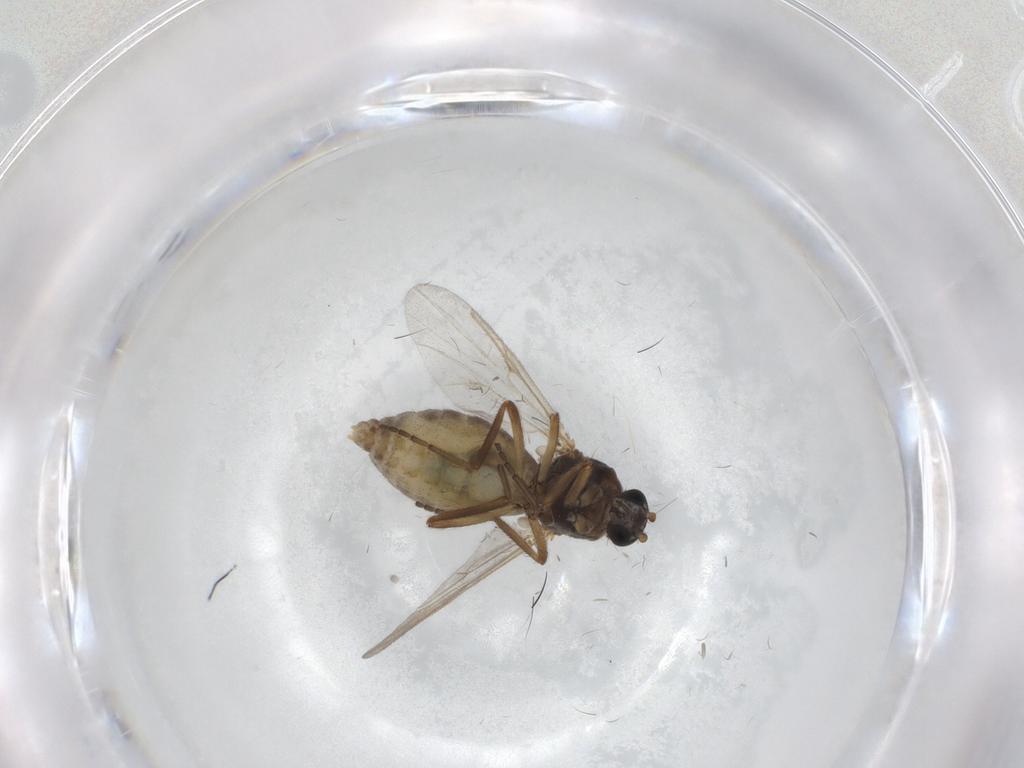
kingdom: Animalia
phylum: Arthropoda
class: Insecta
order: Diptera
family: Ceratopogonidae
